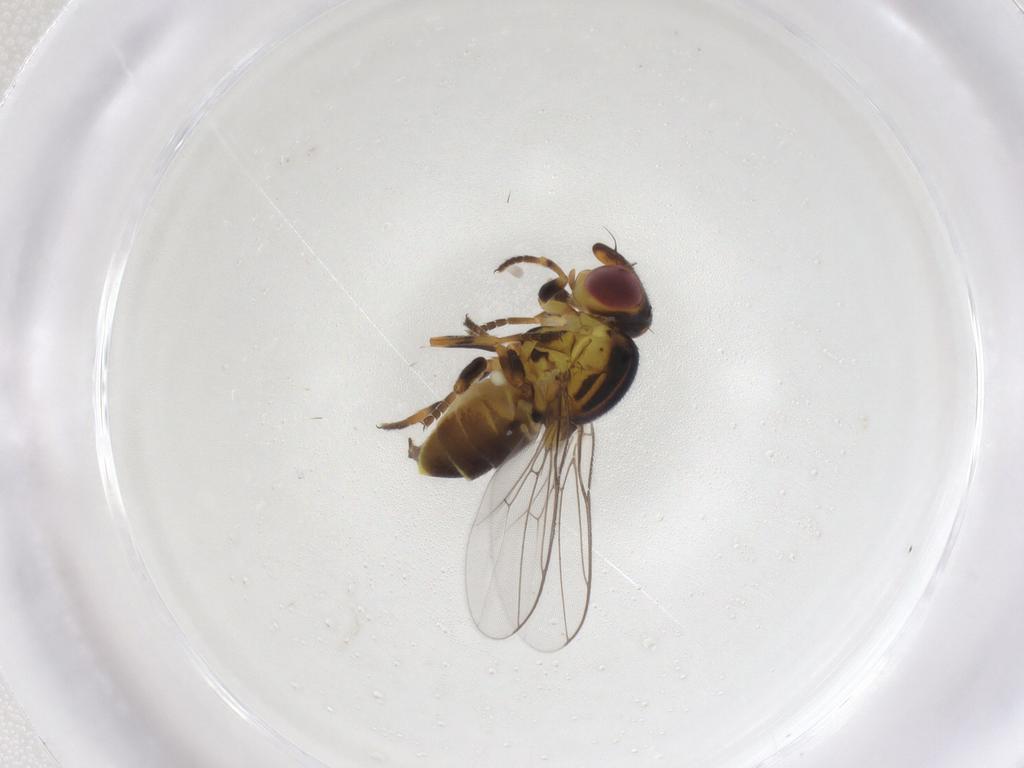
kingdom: Animalia
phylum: Arthropoda
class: Insecta
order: Diptera
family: Chloropidae
